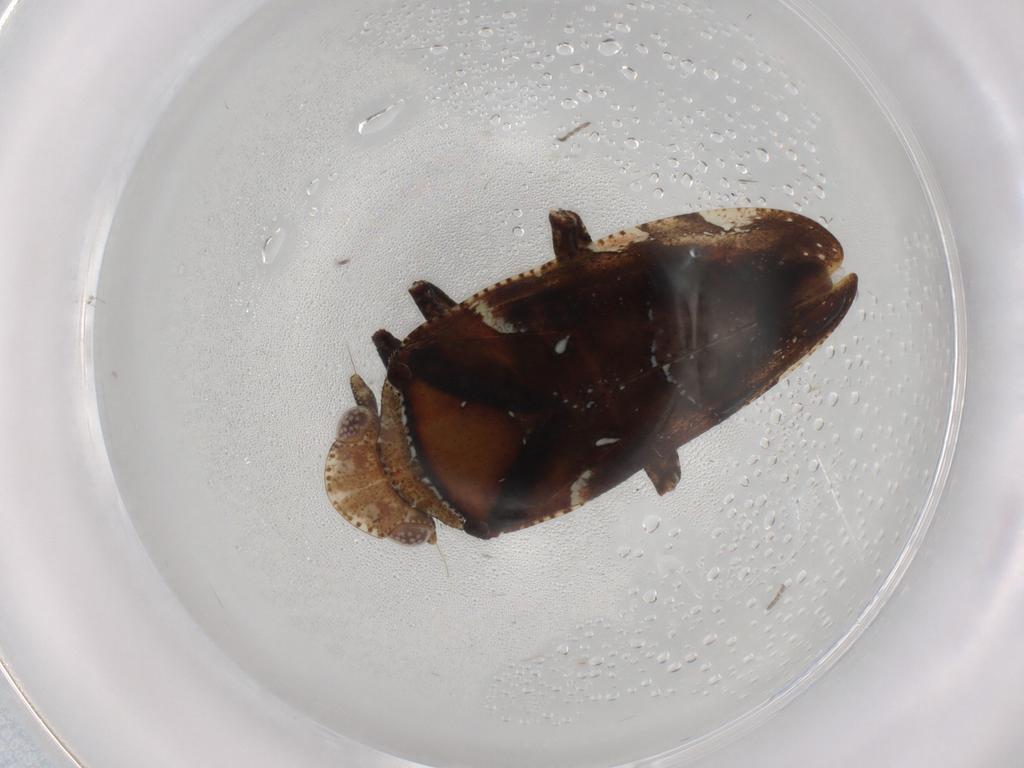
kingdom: Animalia
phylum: Arthropoda
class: Insecta
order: Hemiptera
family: Tettigometridae
